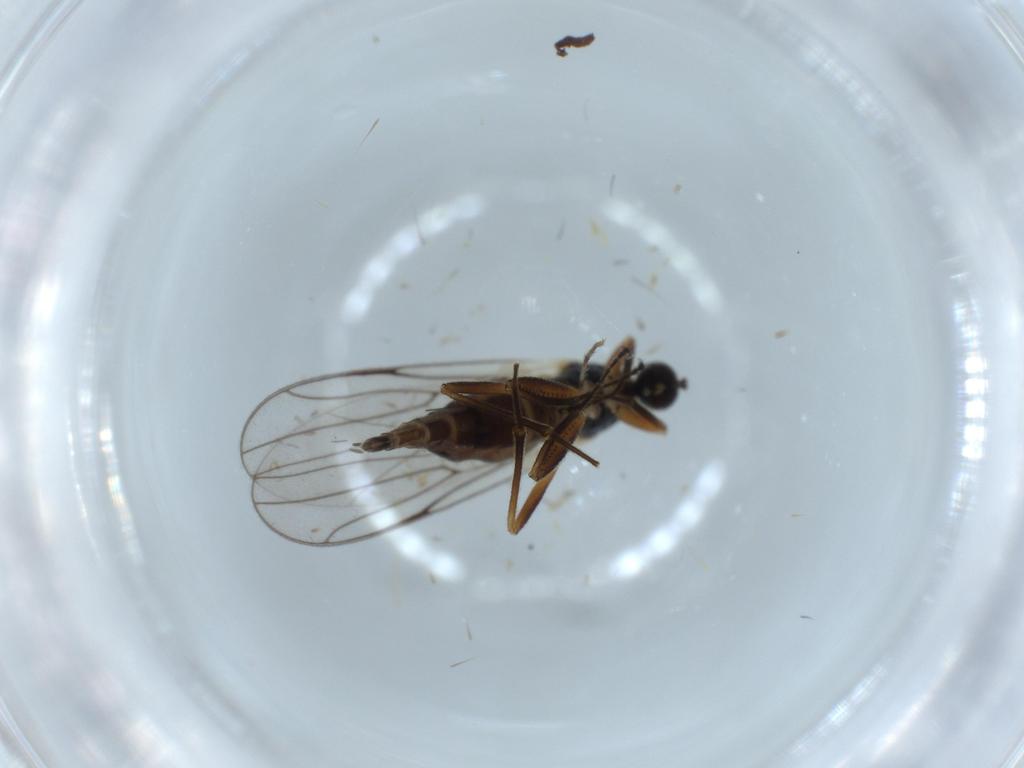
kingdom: Animalia
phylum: Arthropoda
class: Insecta
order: Diptera
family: Hybotidae
